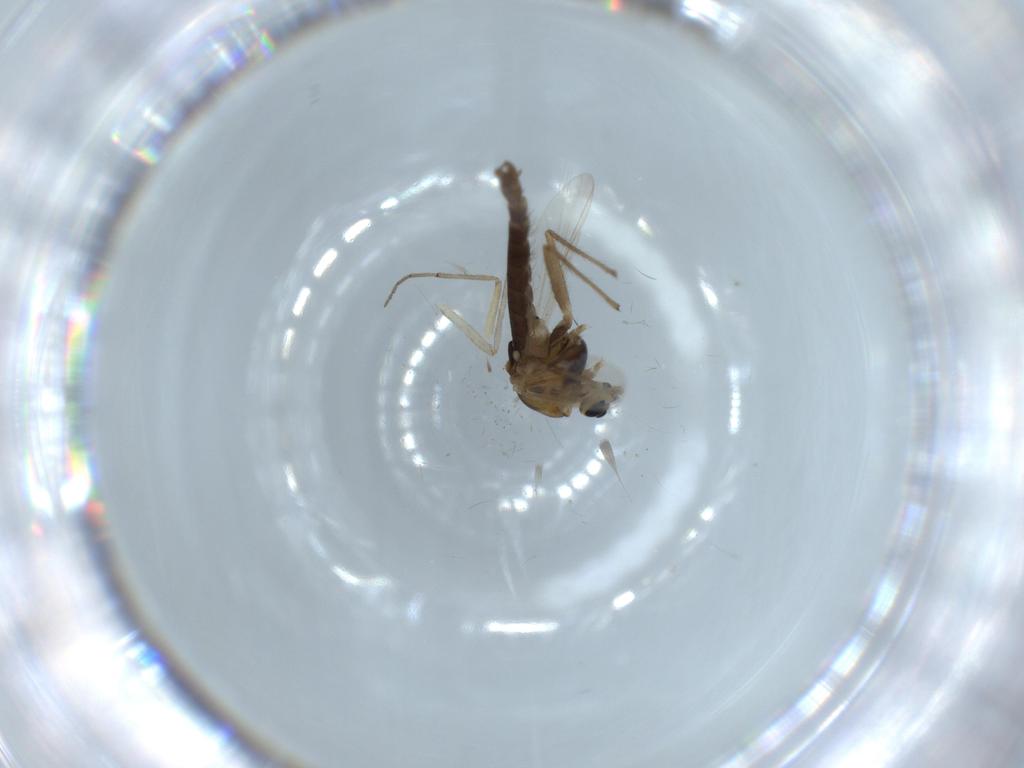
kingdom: Animalia
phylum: Arthropoda
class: Insecta
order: Diptera
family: Chironomidae
